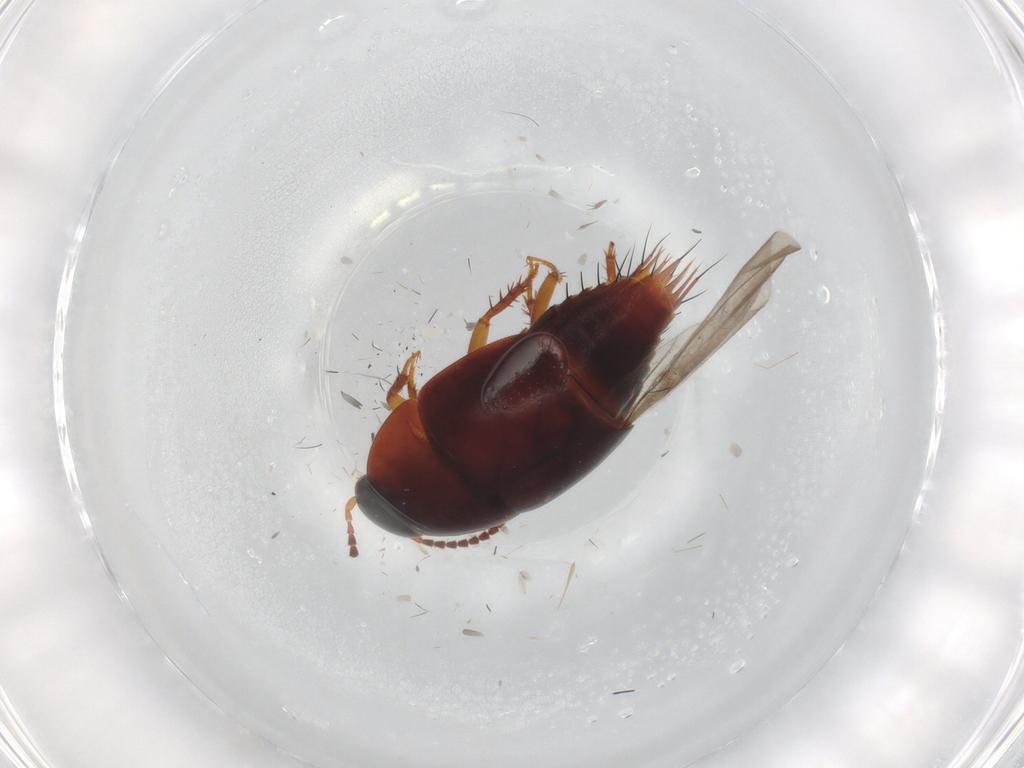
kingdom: Animalia
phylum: Arthropoda
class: Insecta
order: Coleoptera
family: Staphylinidae
